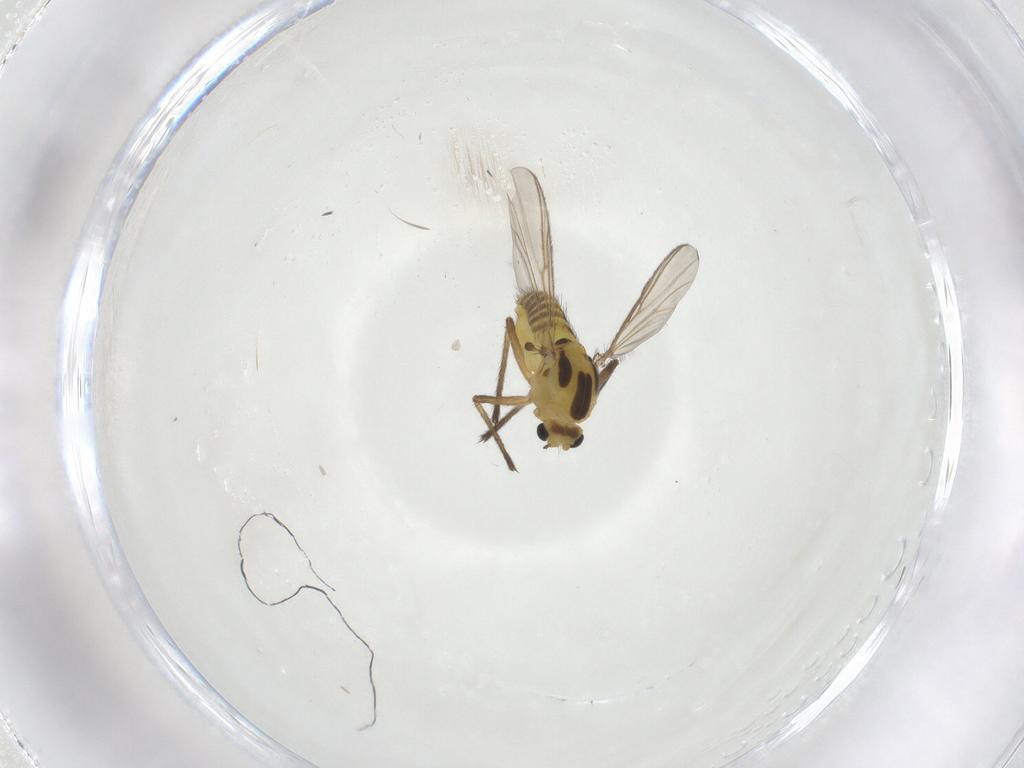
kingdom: Animalia
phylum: Arthropoda
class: Insecta
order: Diptera
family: Chironomidae
